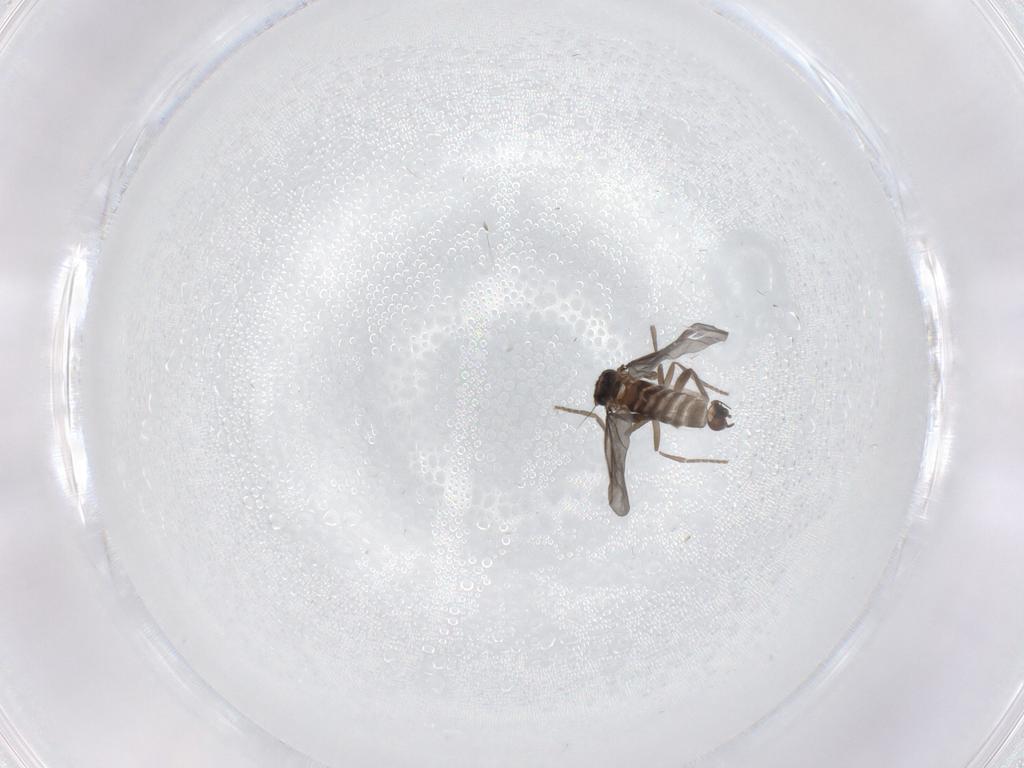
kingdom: Animalia
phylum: Arthropoda
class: Insecta
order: Diptera
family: Phoridae
